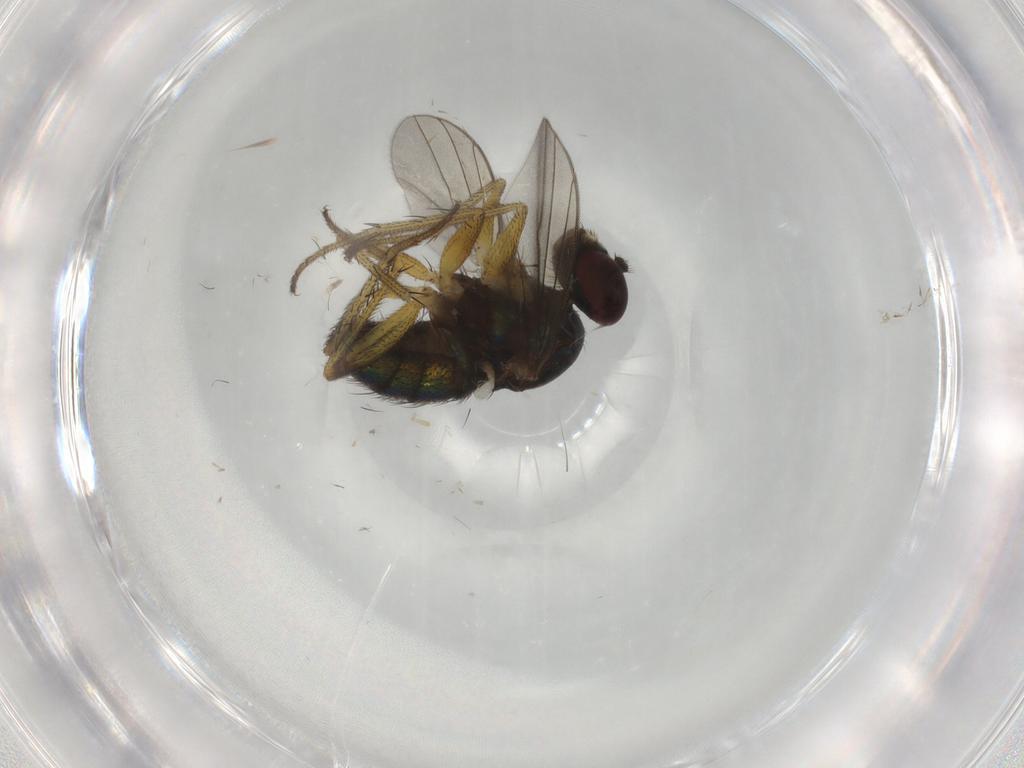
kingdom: Animalia
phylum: Arthropoda
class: Insecta
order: Diptera
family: Dolichopodidae
